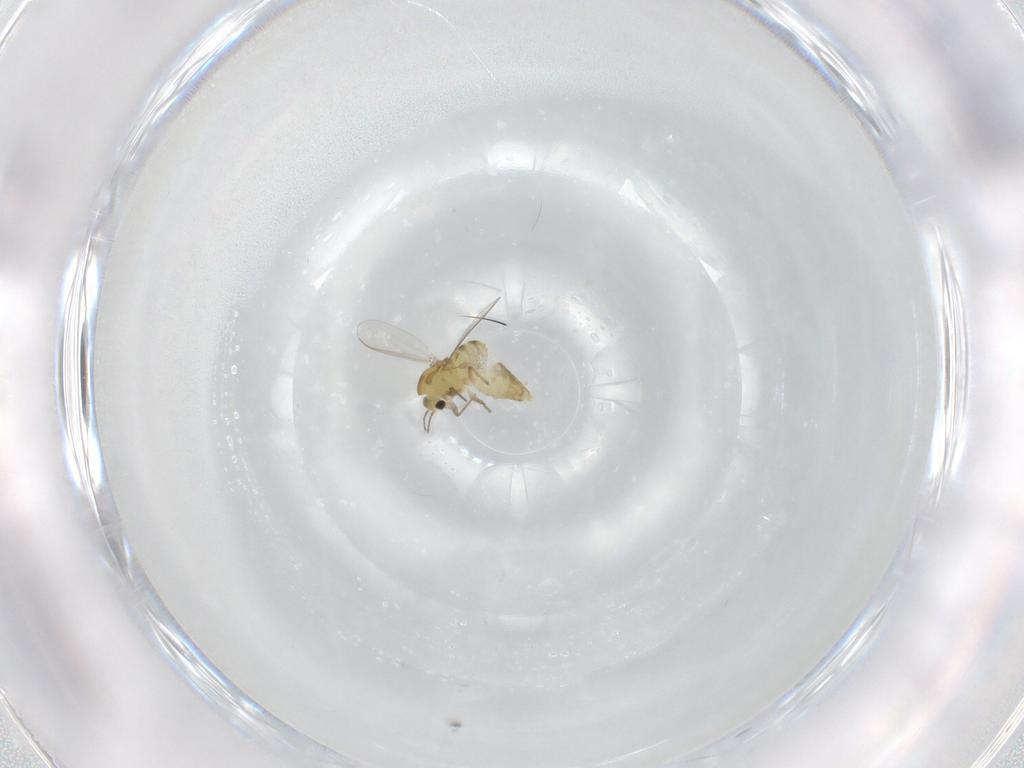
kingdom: Animalia
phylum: Arthropoda
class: Insecta
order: Diptera
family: Chironomidae
